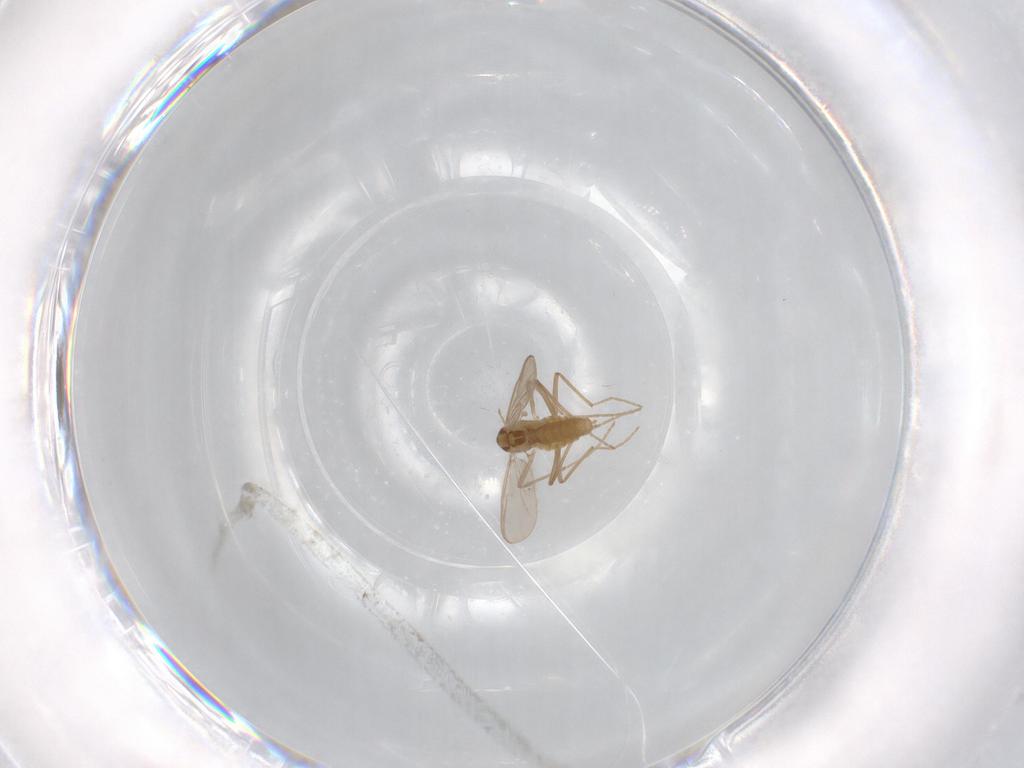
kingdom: Animalia
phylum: Arthropoda
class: Insecta
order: Diptera
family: Chironomidae
